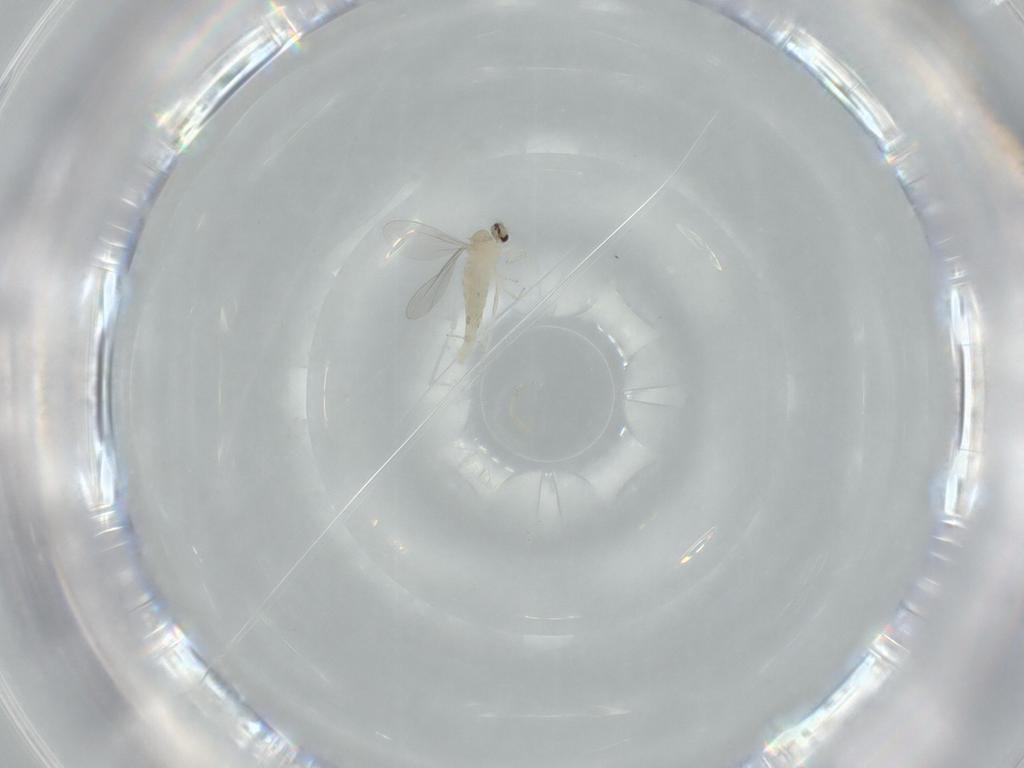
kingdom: Animalia
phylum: Arthropoda
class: Insecta
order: Diptera
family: Cecidomyiidae
